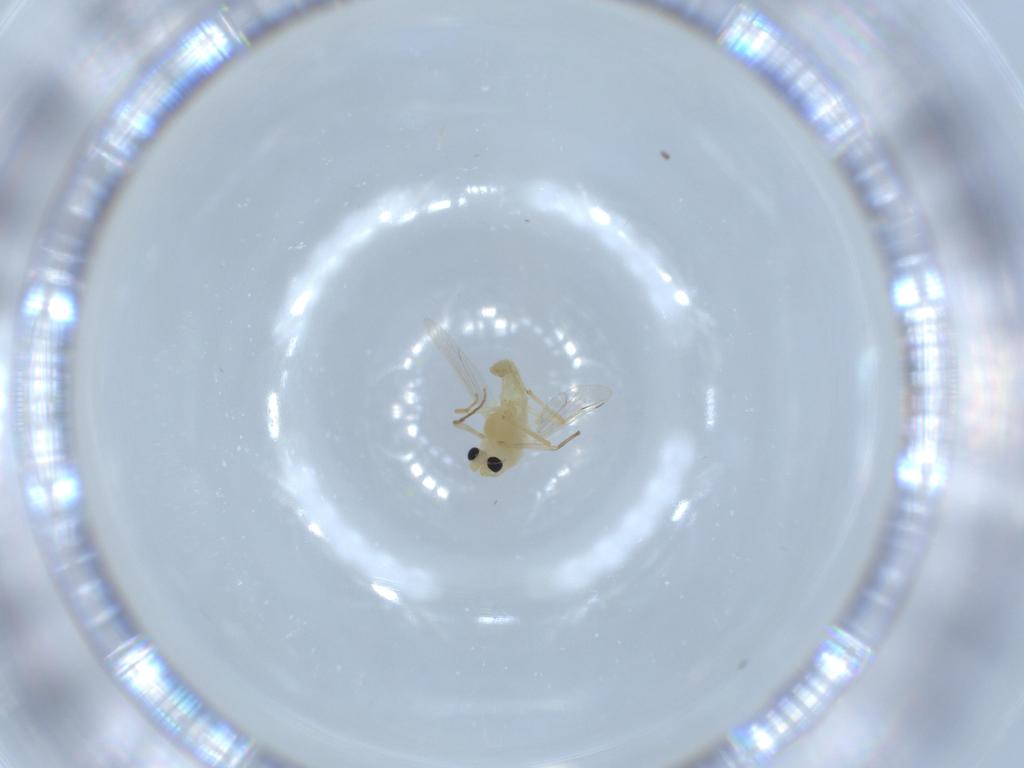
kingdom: Animalia
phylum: Arthropoda
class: Insecta
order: Diptera
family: Chironomidae
